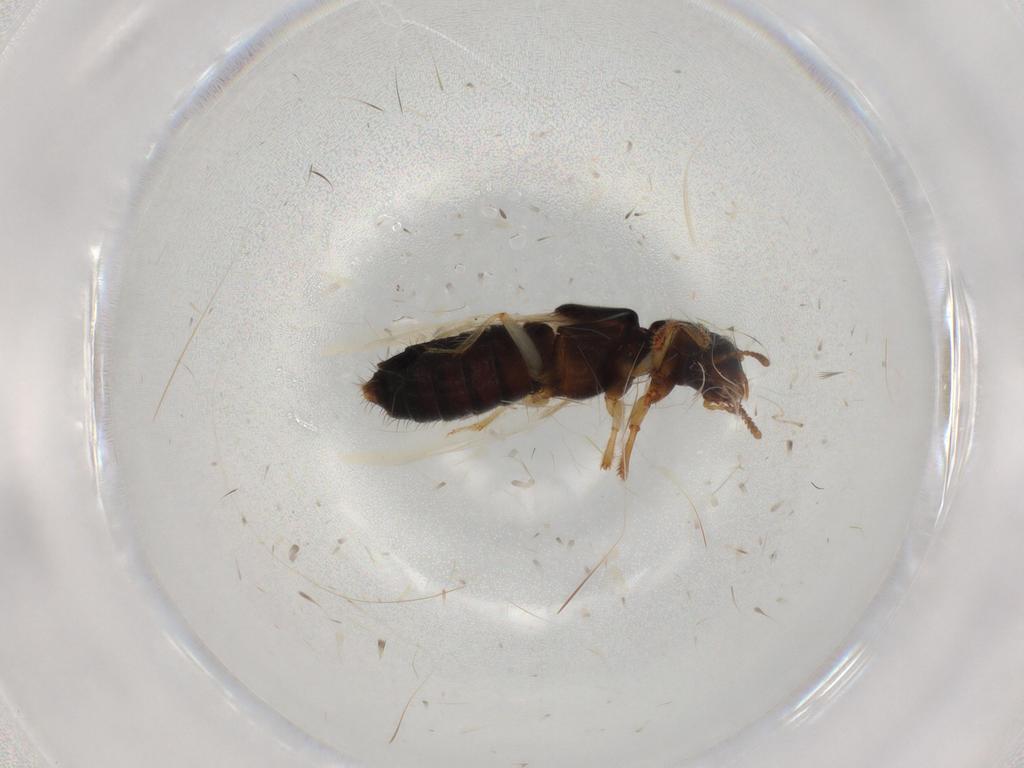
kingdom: Animalia
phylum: Arthropoda
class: Insecta
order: Coleoptera
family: Staphylinidae
